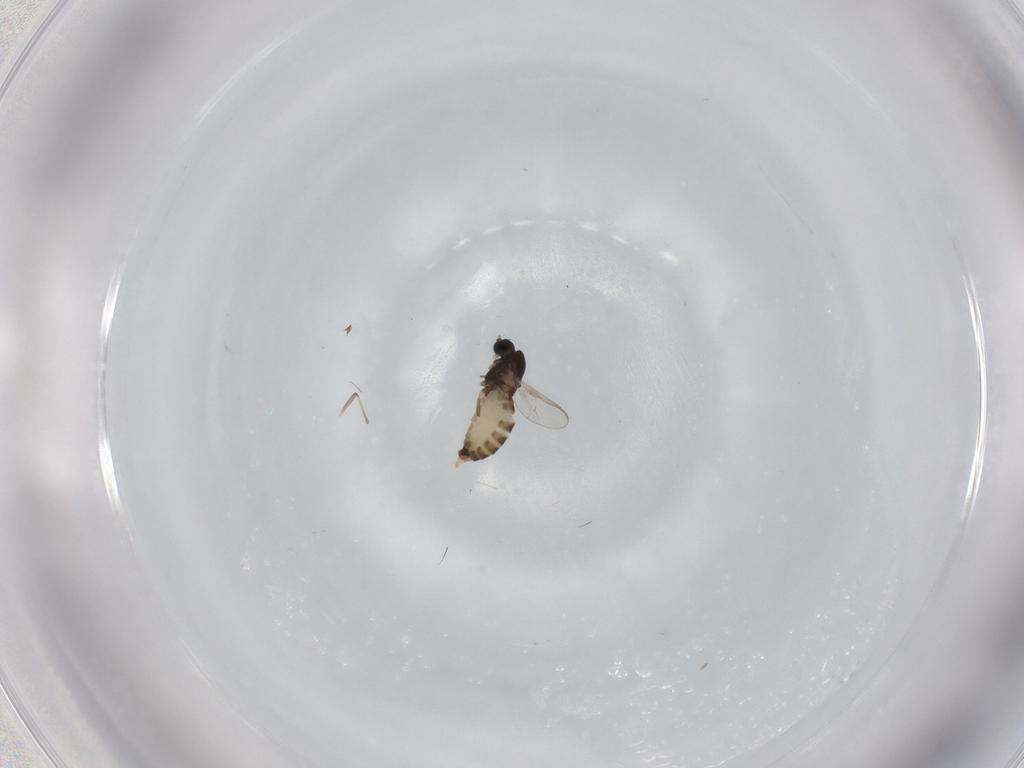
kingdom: Animalia
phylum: Arthropoda
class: Insecta
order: Diptera
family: Chironomidae
